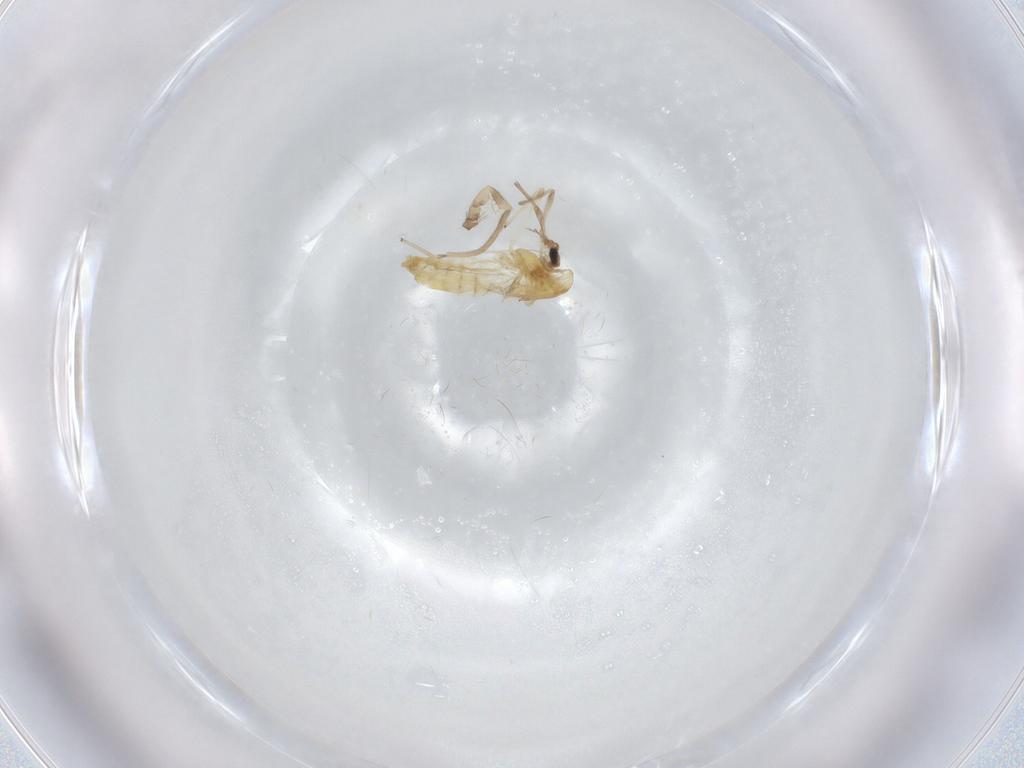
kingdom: Animalia
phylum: Arthropoda
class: Insecta
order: Diptera
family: Chironomidae
